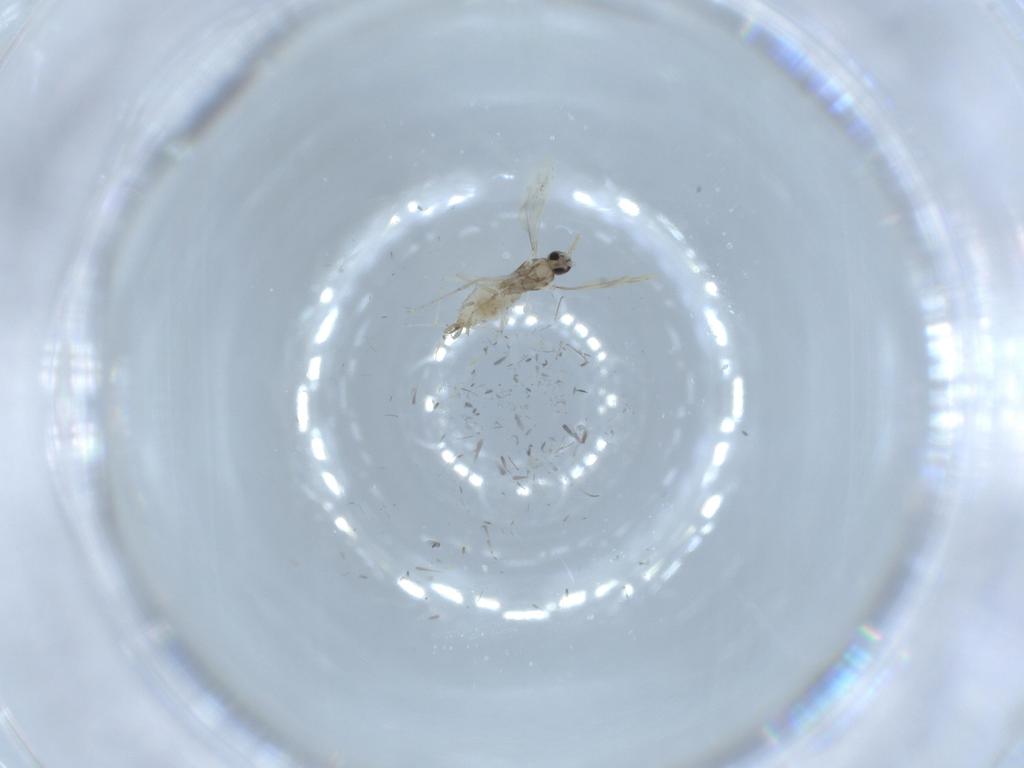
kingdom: Animalia
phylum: Arthropoda
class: Insecta
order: Diptera
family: Cecidomyiidae
